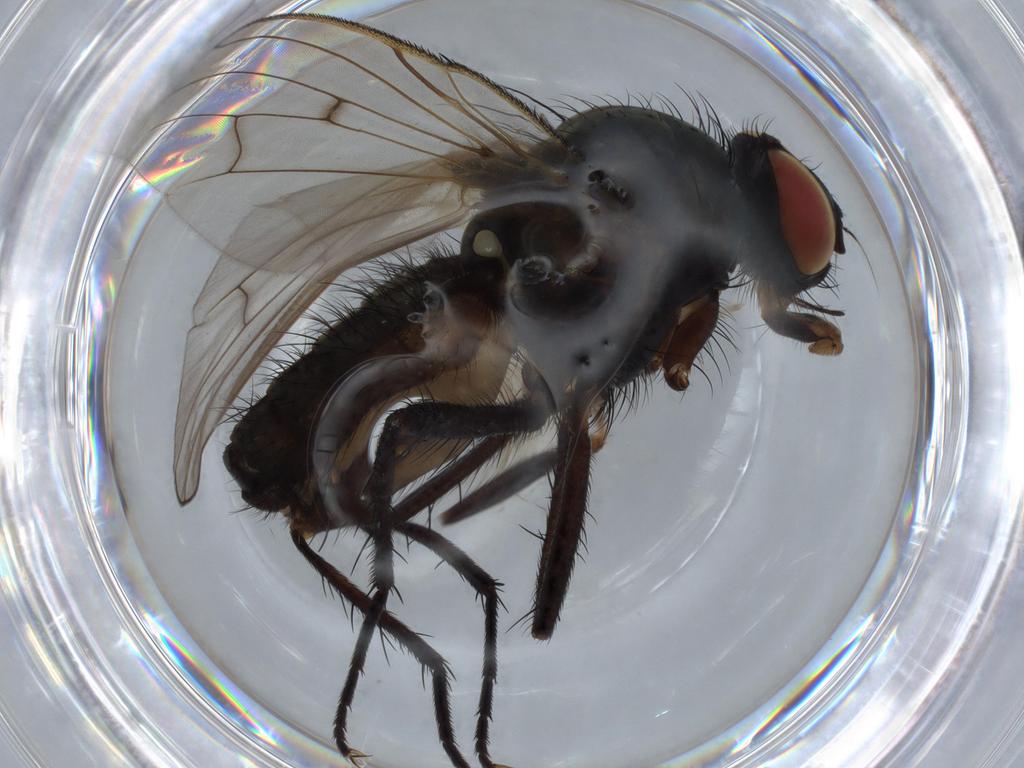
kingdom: Animalia
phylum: Arthropoda
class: Insecta
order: Diptera
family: Anthomyiidae
